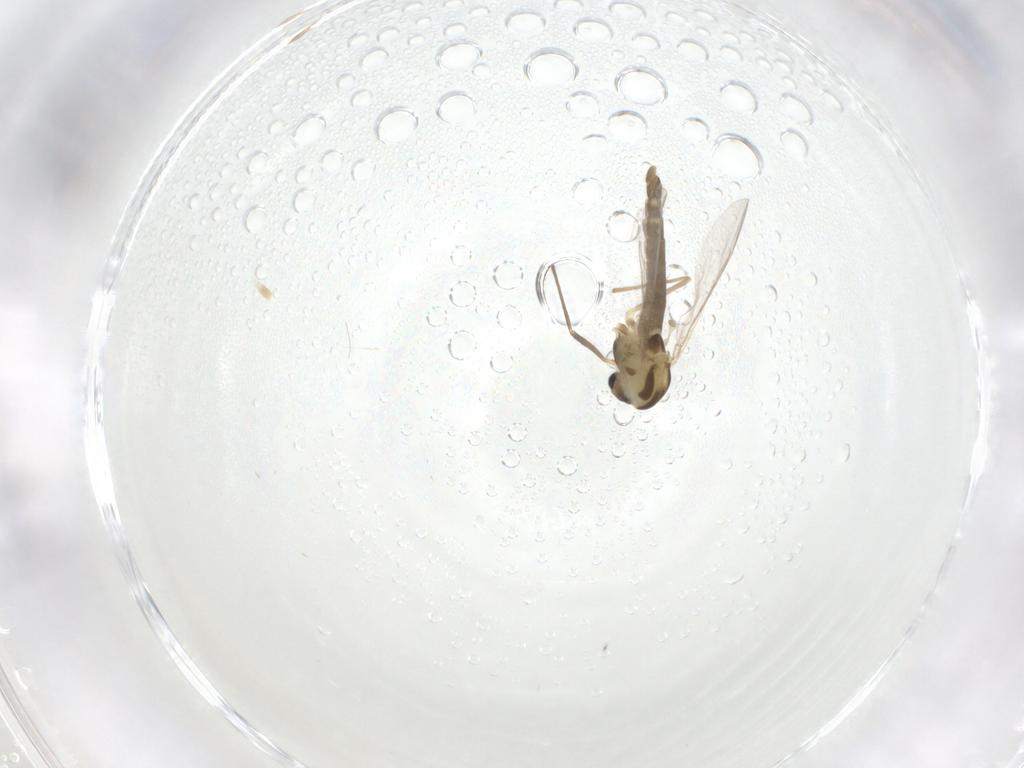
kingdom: Animalia
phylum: Arthropoda
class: Insecta
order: Diptera
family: Chironomidae
